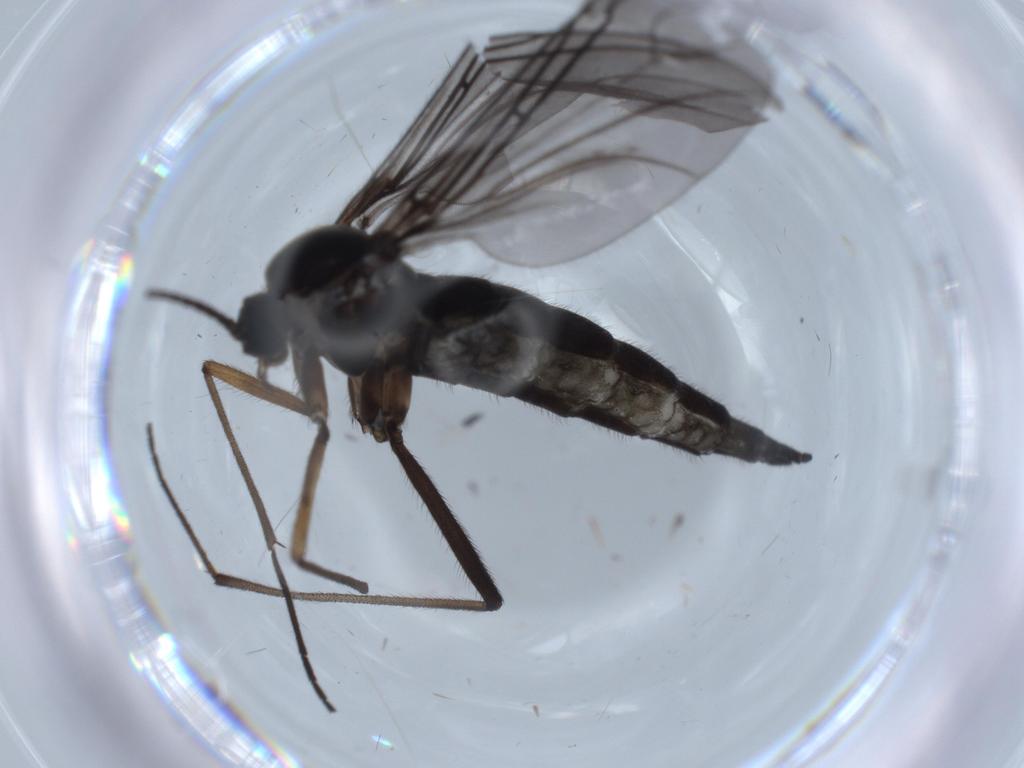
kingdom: Animalia
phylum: Arthropoda
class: Insecta
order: Diptera
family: Sciaridae
